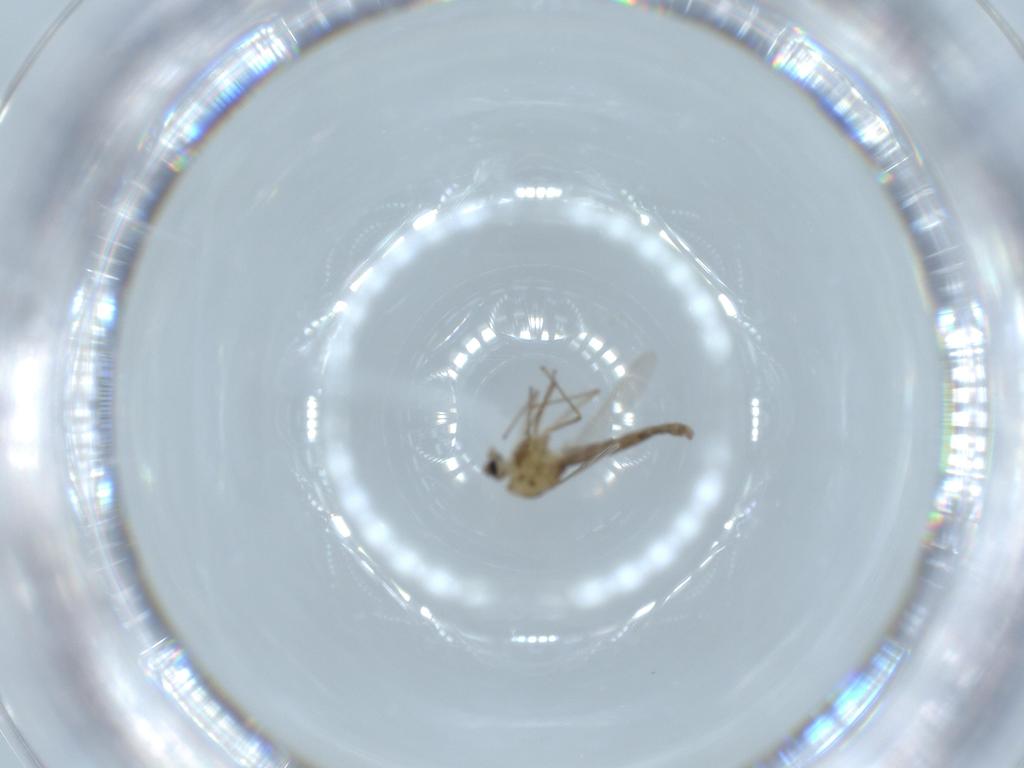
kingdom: Animalia
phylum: Arthropoda
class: Insecta
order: Diptera
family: Chironomidae
